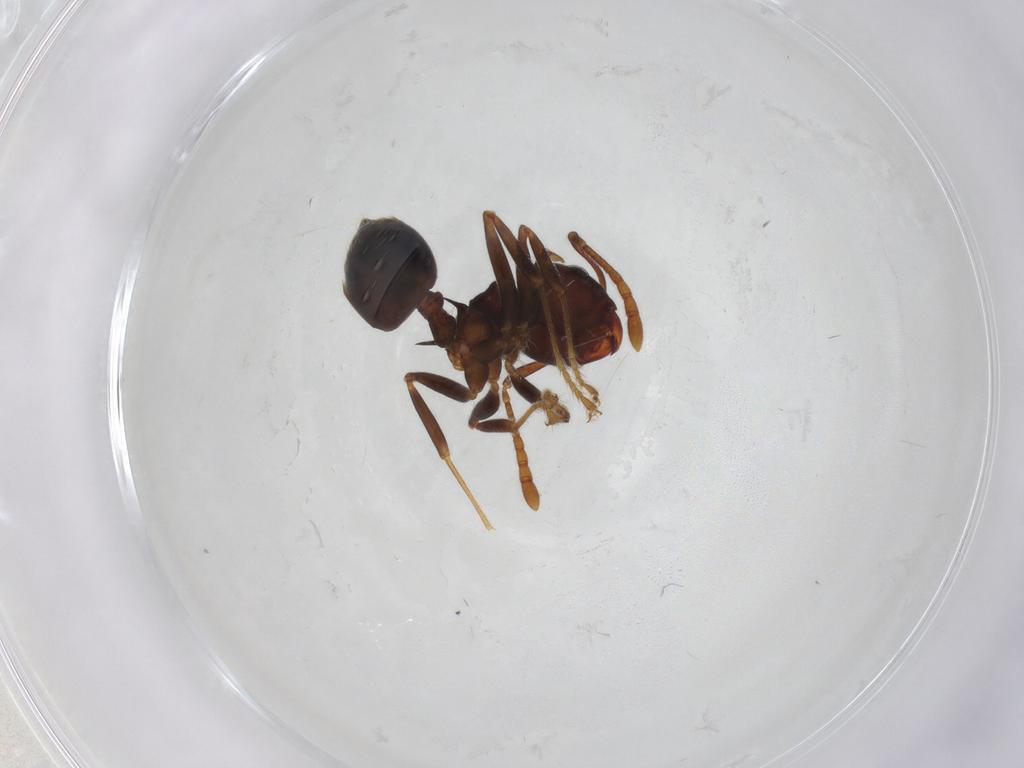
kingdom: Animalia
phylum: Arthropoda
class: Insecta
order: Hymenoptera
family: Formicidae
